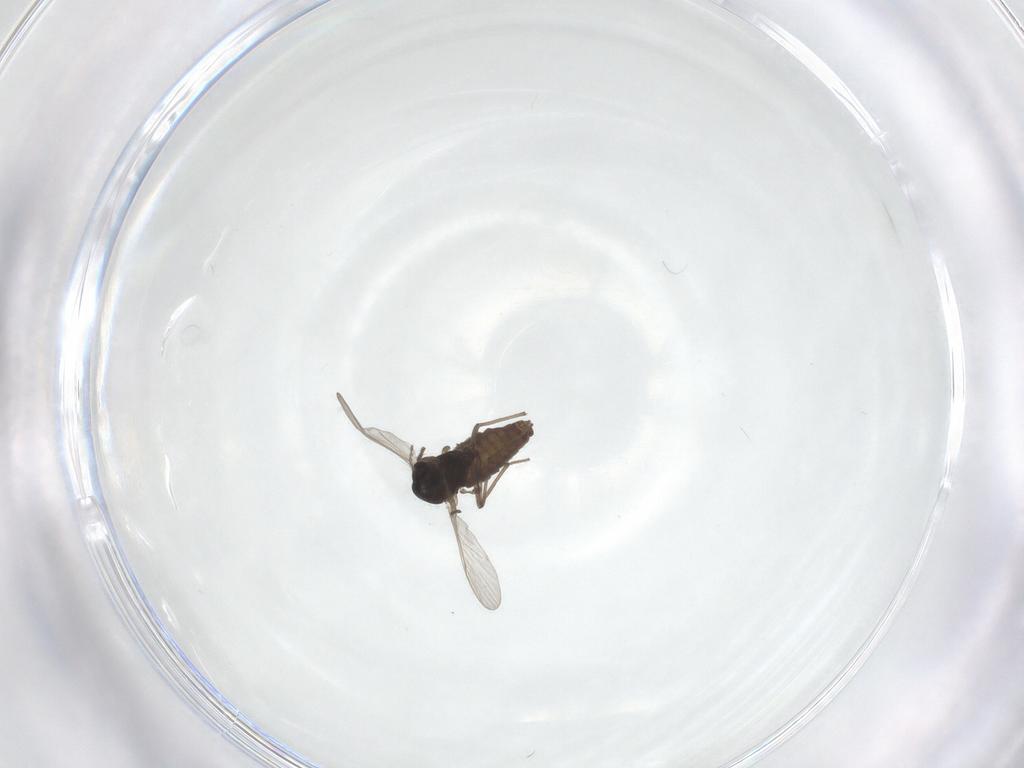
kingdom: Animalia
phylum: Arthropoda
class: Insecta
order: Diptera
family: Chironomidae
